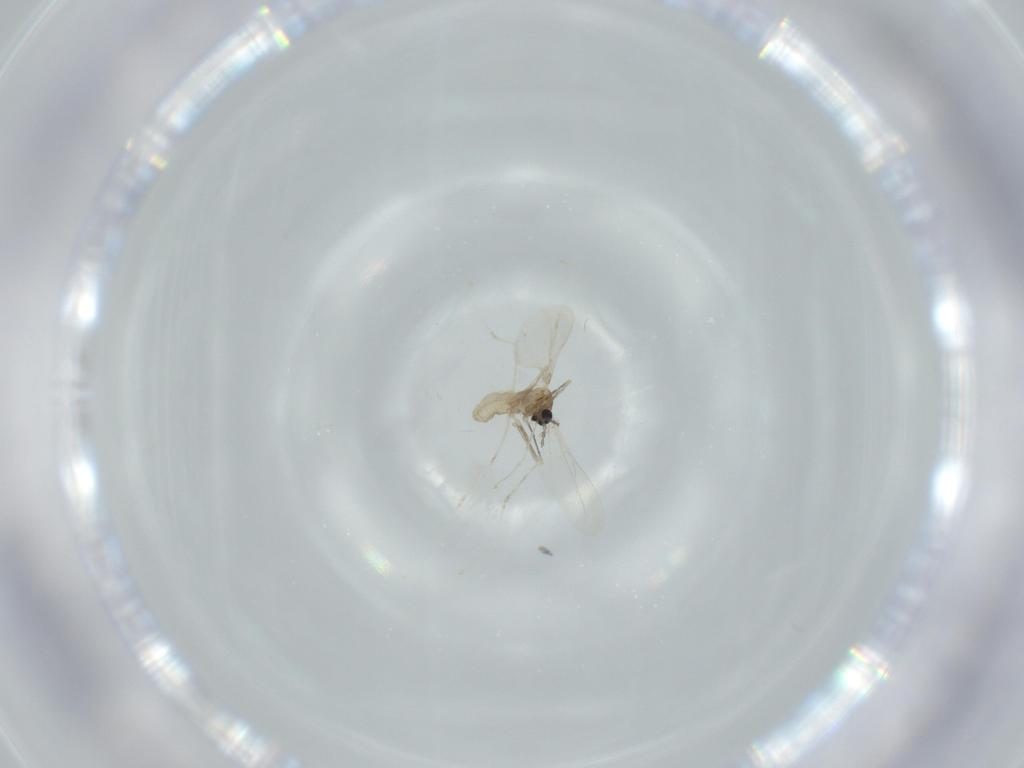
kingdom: Animalia
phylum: Arthropoda
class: Insecta
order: Diptera
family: Cecidomyiidae
